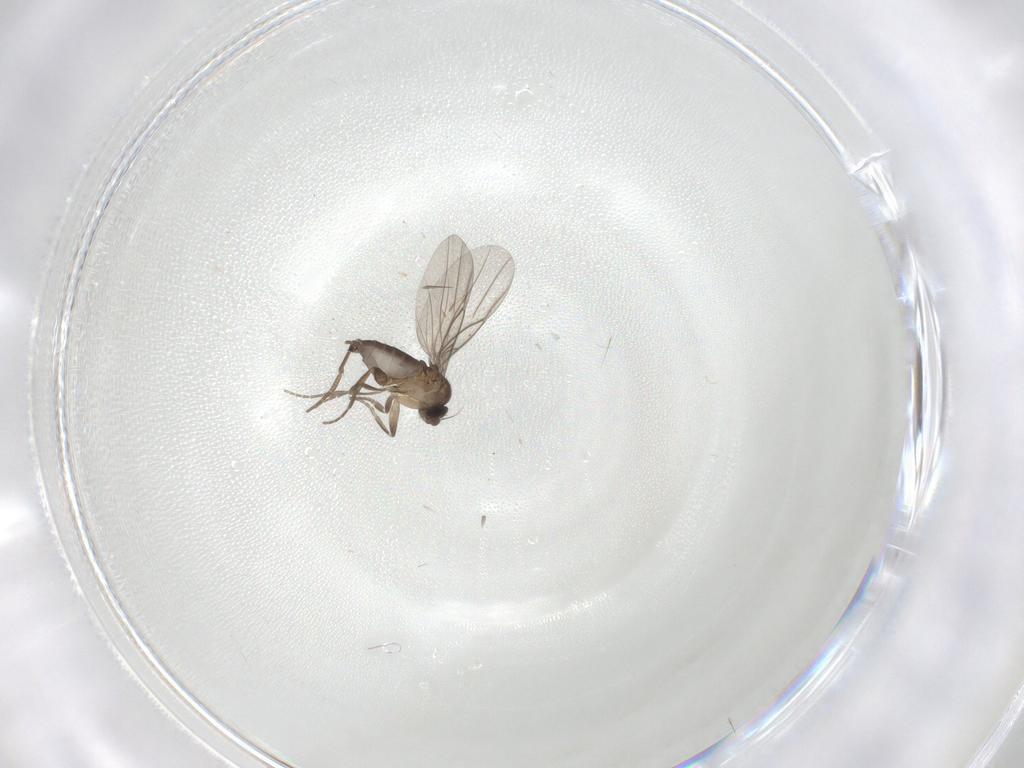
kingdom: Animalia
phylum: Arthropoda
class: Insecta
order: Diptera
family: Phoridae
